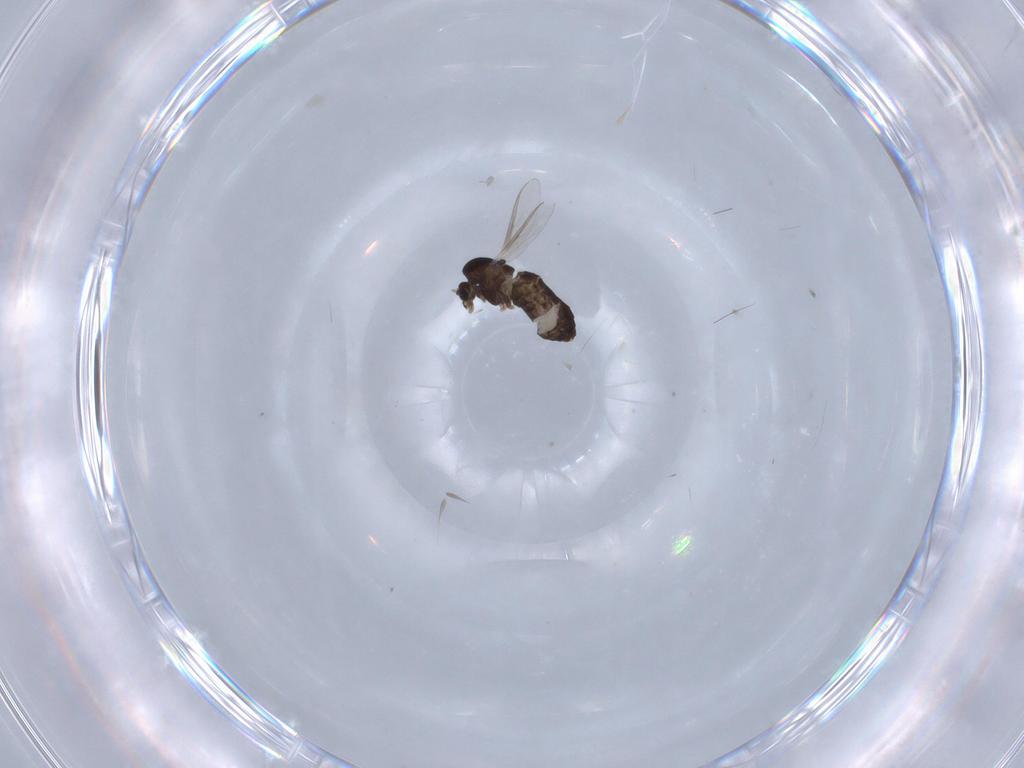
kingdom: Animalia
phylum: Arthropoda
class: Insecta
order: Diptera
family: Chironomidae
